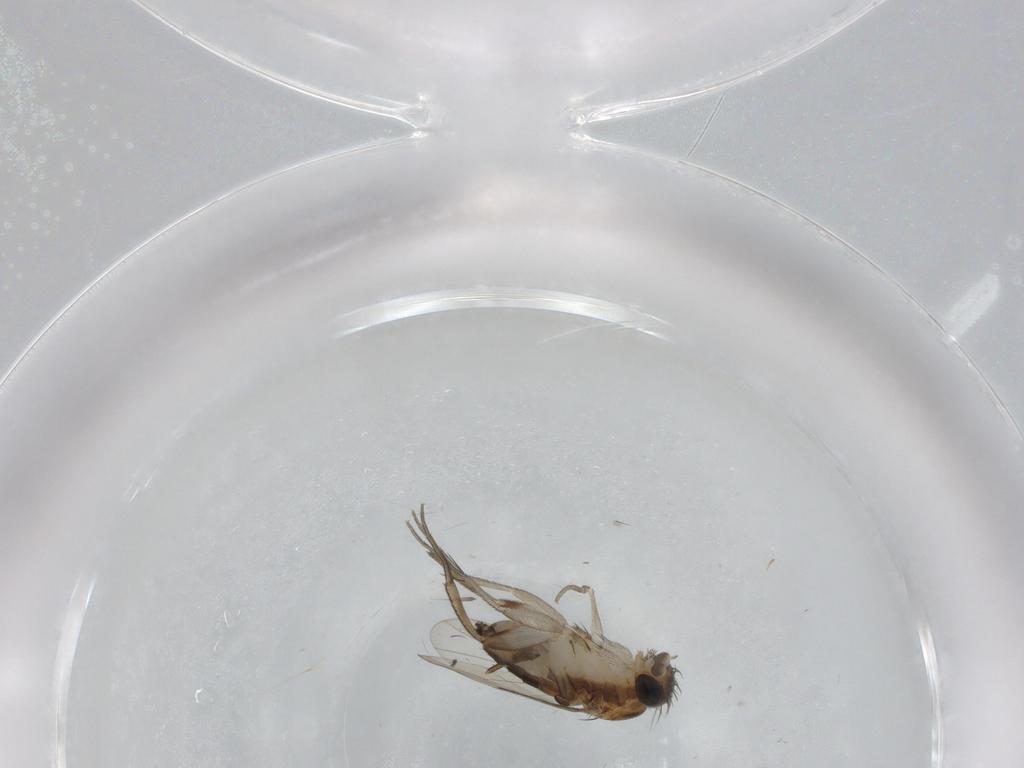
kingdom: Animalia
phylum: Arthropoda
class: Insecta
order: Diptera
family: Phoridae
